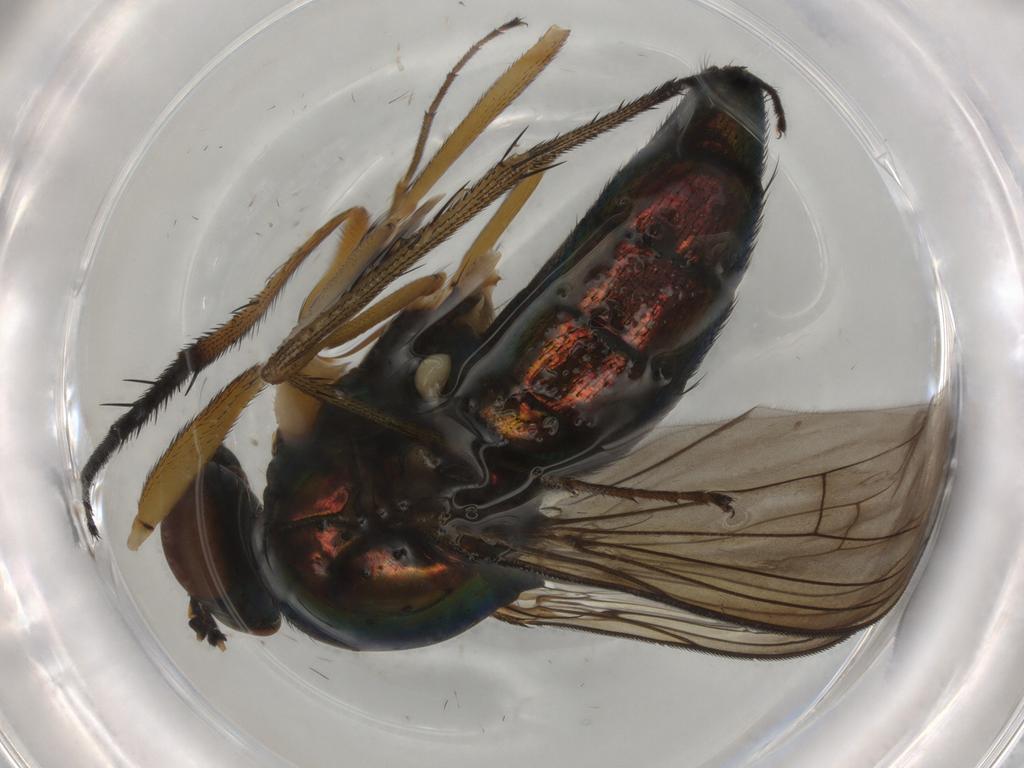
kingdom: Animalia
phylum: Arthropoda
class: Insecta
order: Diptera
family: Dolichopodidae
